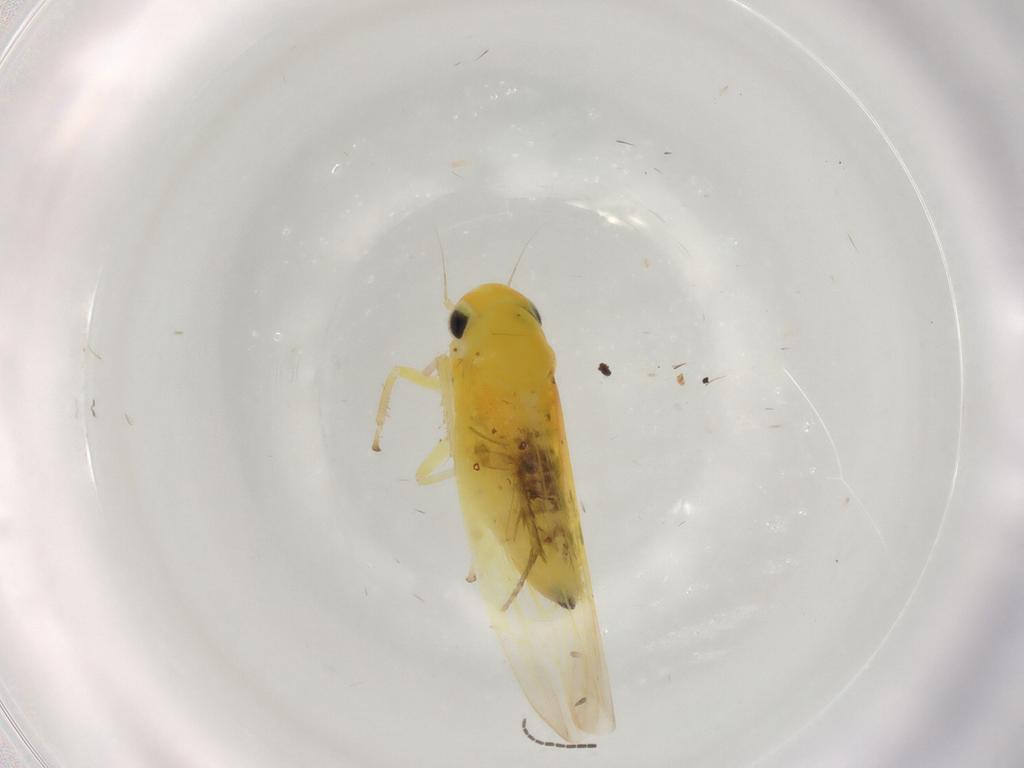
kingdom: Animalia
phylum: Arthropoda
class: Insecta
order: Hemiptera
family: Cicadellidae
